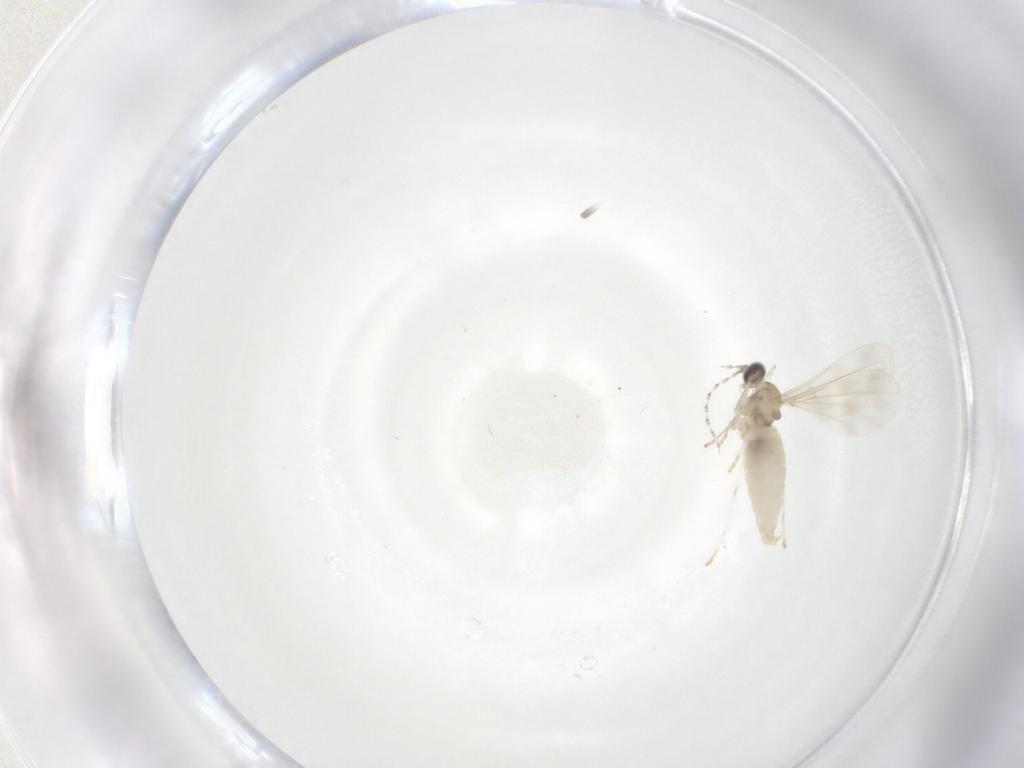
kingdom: Animalia
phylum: Arthropoda
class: Insecta
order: Diptera
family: Cecidomyiidae
